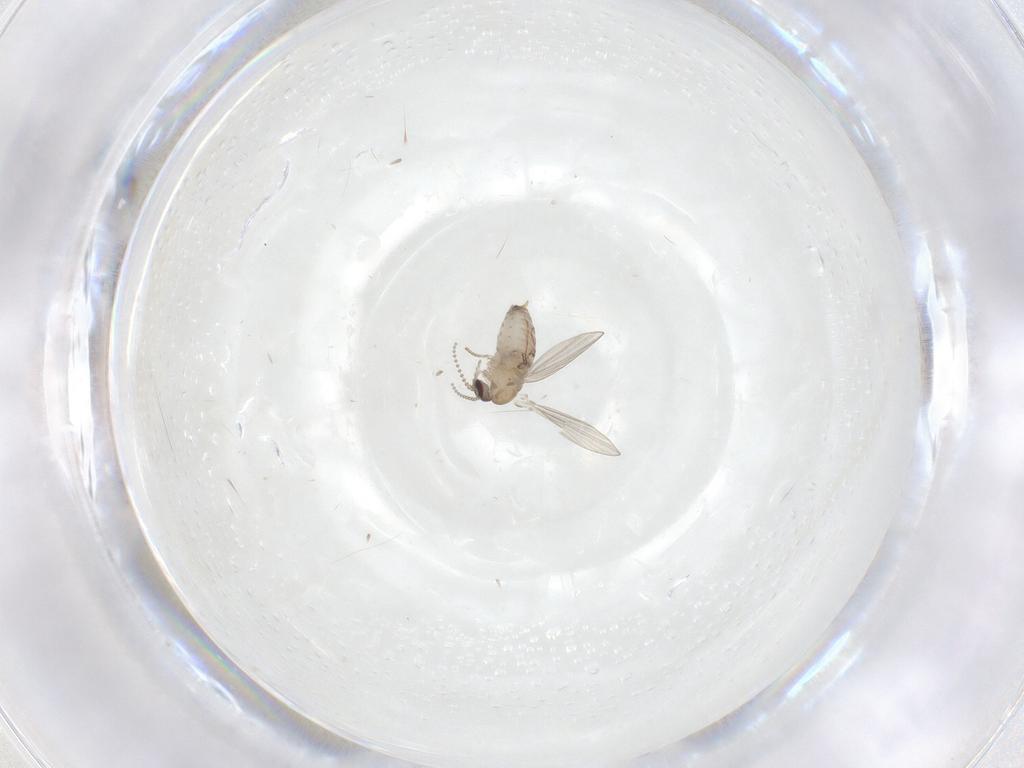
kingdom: Animalia
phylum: Arthropoda
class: Insecta
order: Diptera
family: Psychodidae
